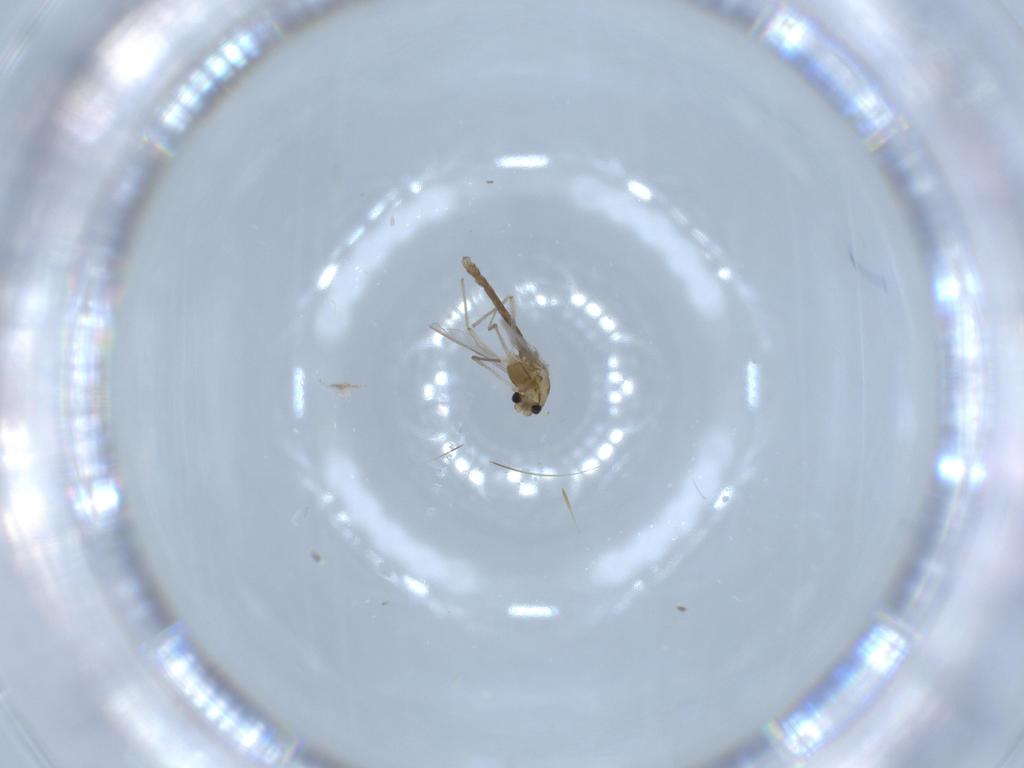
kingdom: Animalia
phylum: Arthropoda
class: Insecta
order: Diptera
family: Chironomidae
